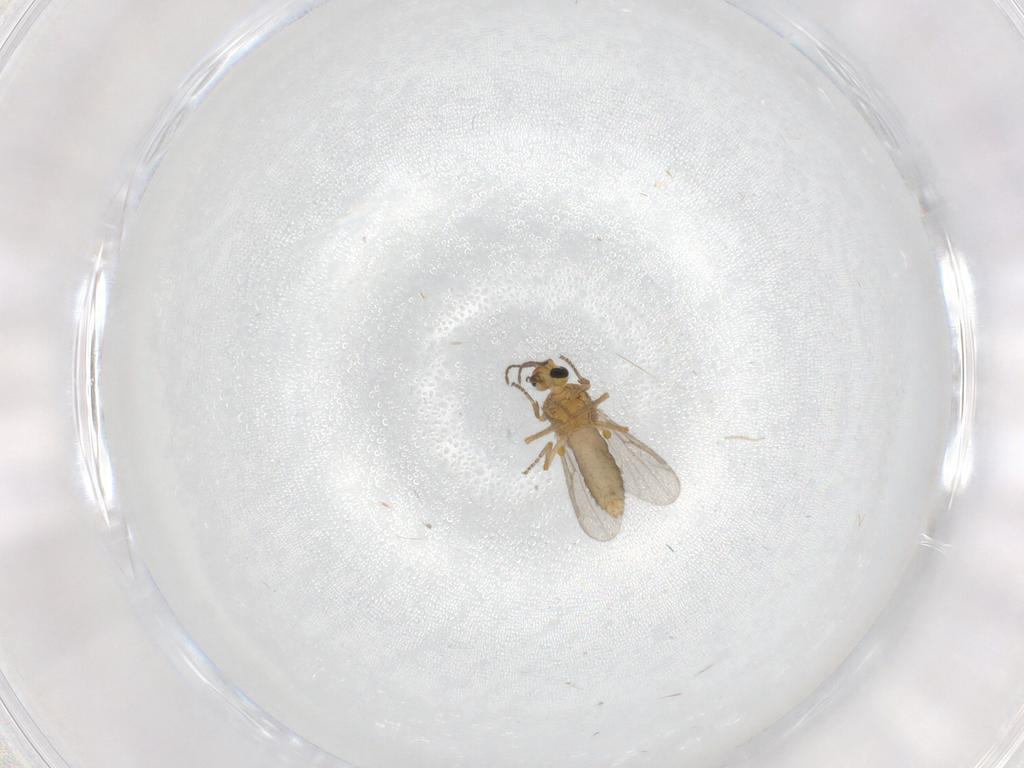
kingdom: Animalia
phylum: Arthropoda
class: Insecta
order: Diptera
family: Ceratopogonidae
